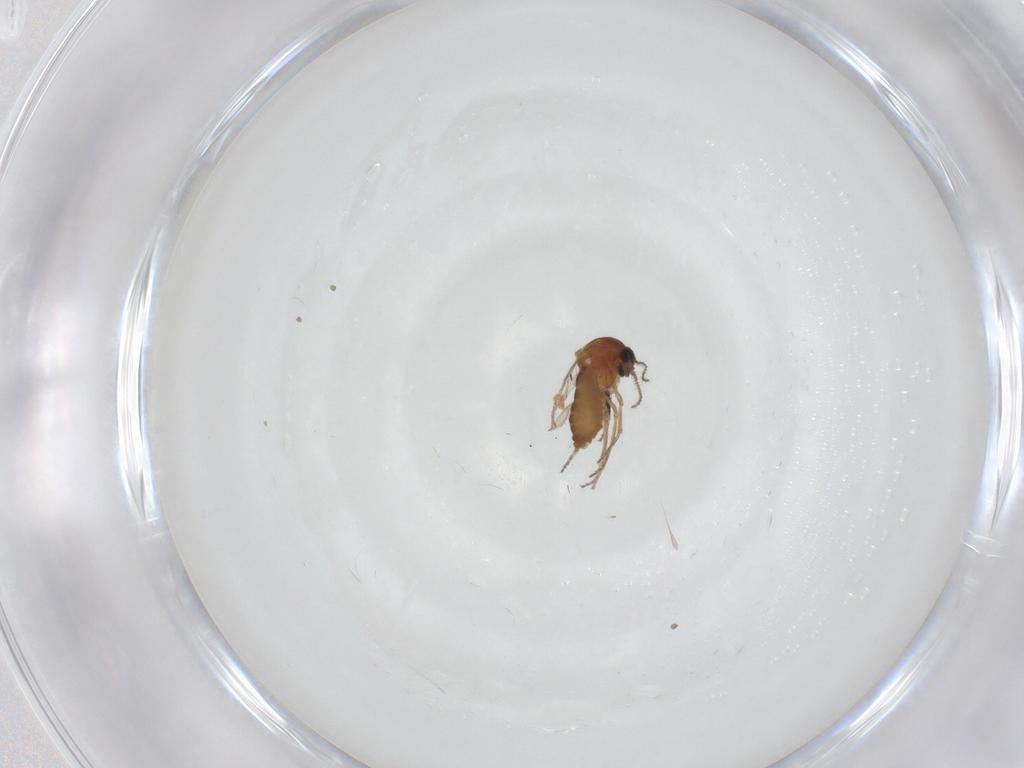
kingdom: Animalia
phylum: Arthropoda
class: Insecta
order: Diptera
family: Ceratopogonidae
